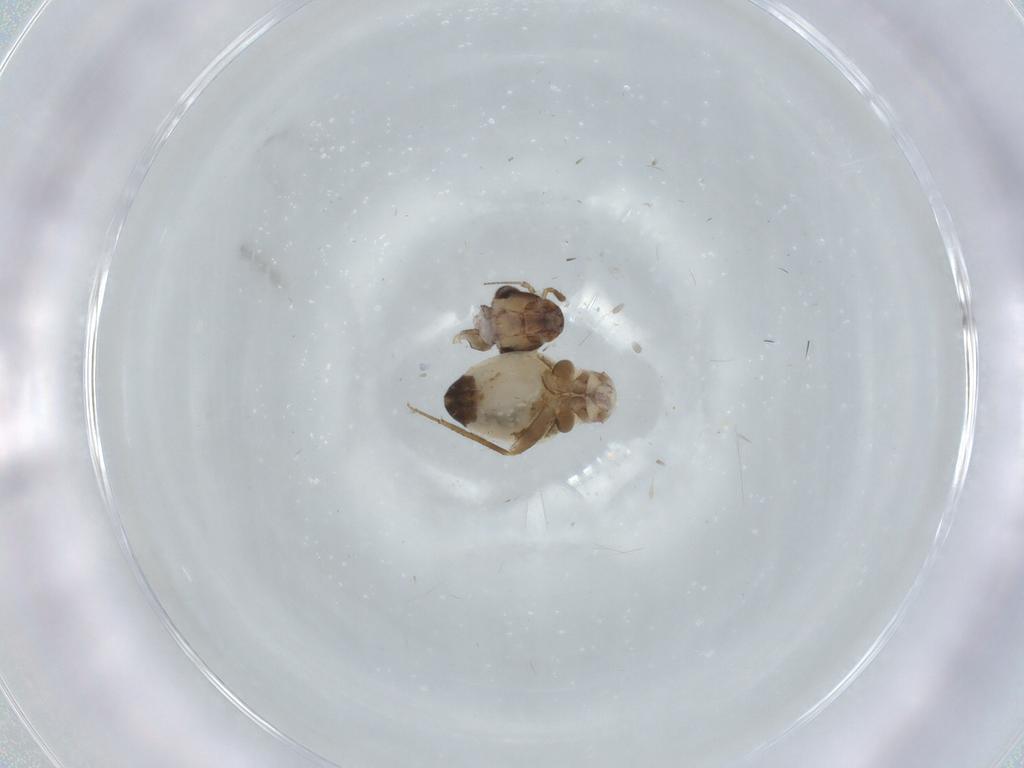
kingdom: Animalia
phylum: Arthropoda
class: Insecta
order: Psocodea
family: Lepidopsocidae
